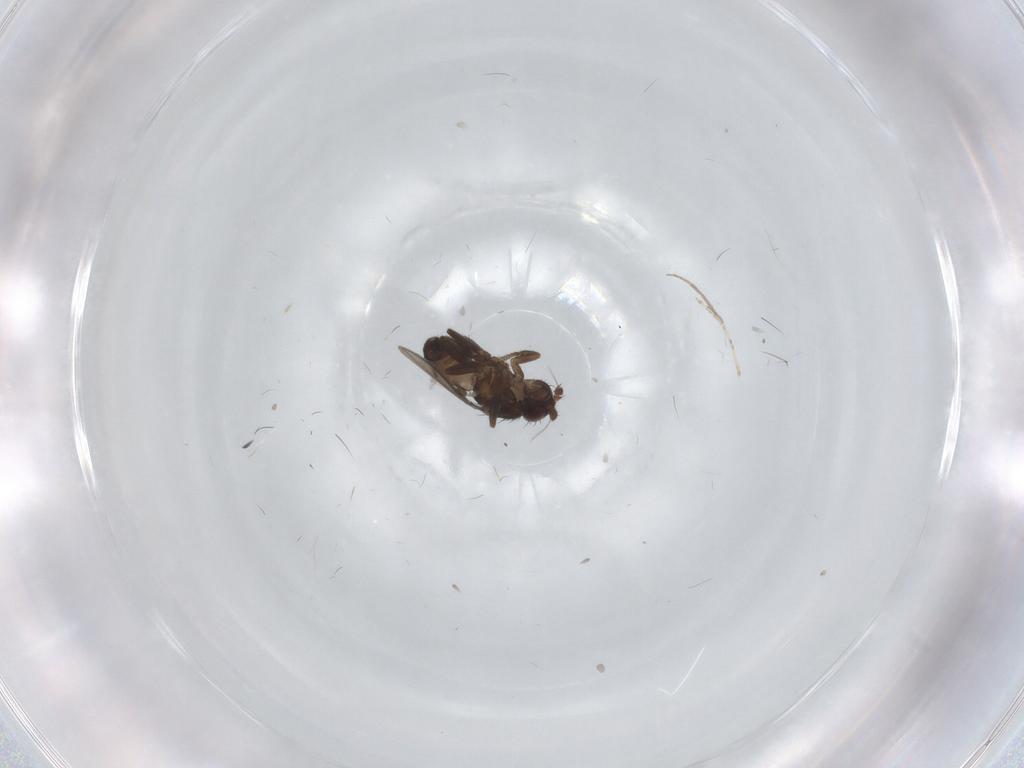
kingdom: Animalia
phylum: Arthropoda
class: Insecta
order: Diptera
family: Sphaeroceridae
